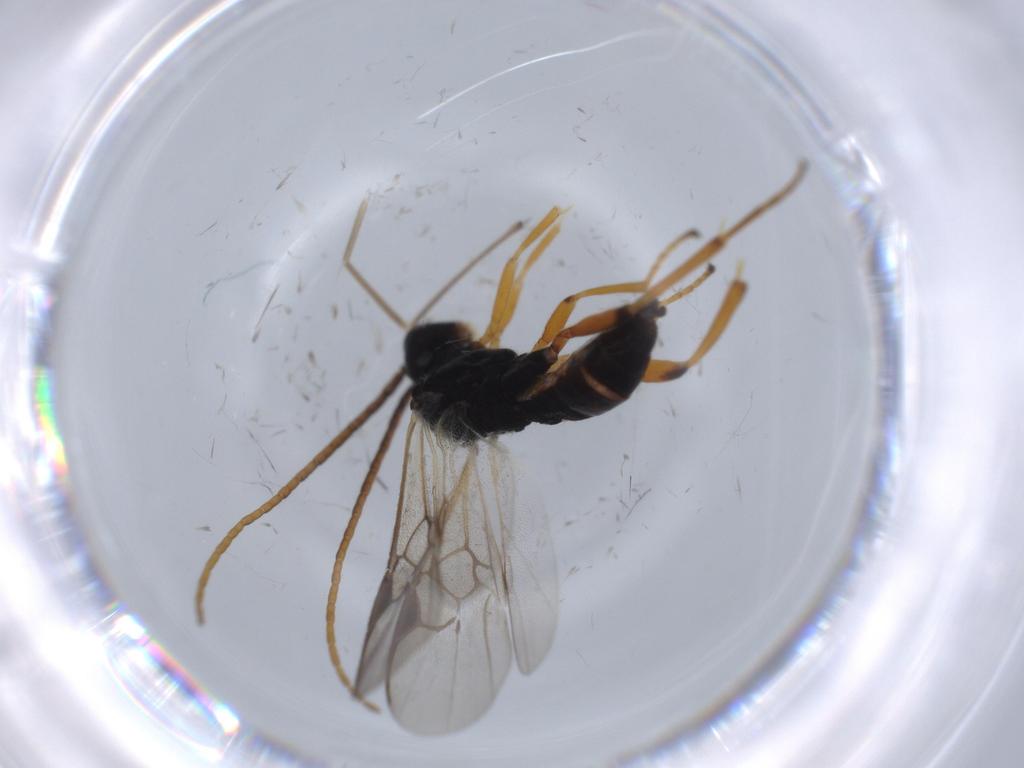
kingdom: Animalia
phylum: Arthropoda
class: Insecta
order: Hymenoptera
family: Braconidae
